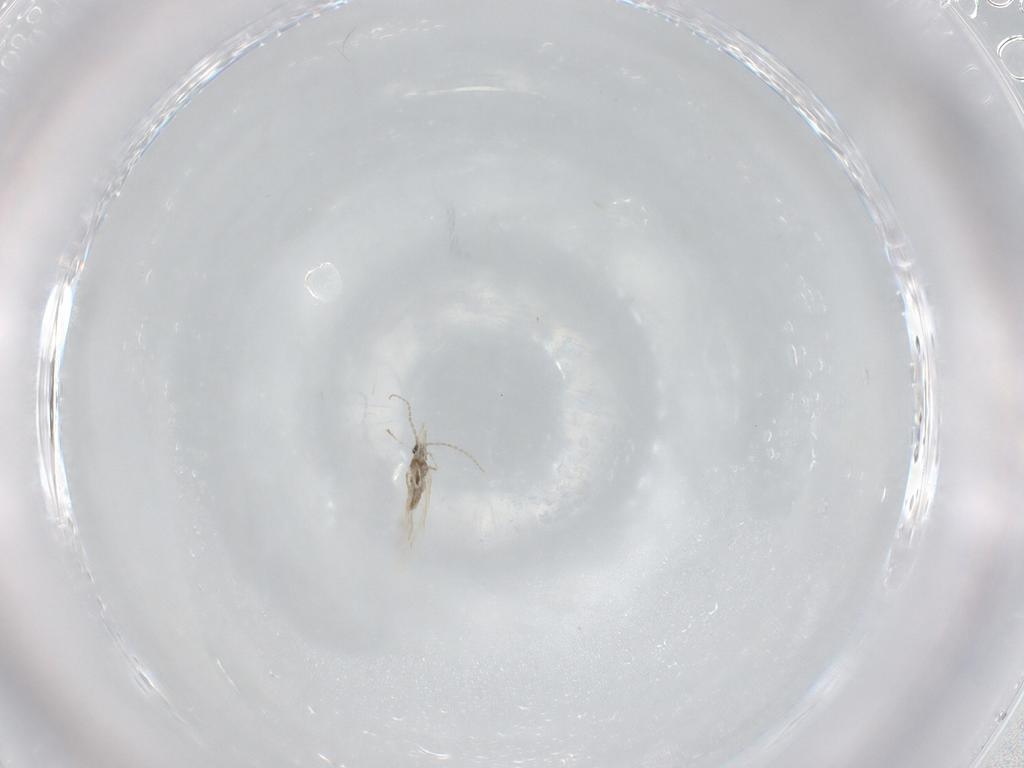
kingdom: Animalia
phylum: Arthropoda
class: Insecta
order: Diptera
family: Cecidomyiidae
